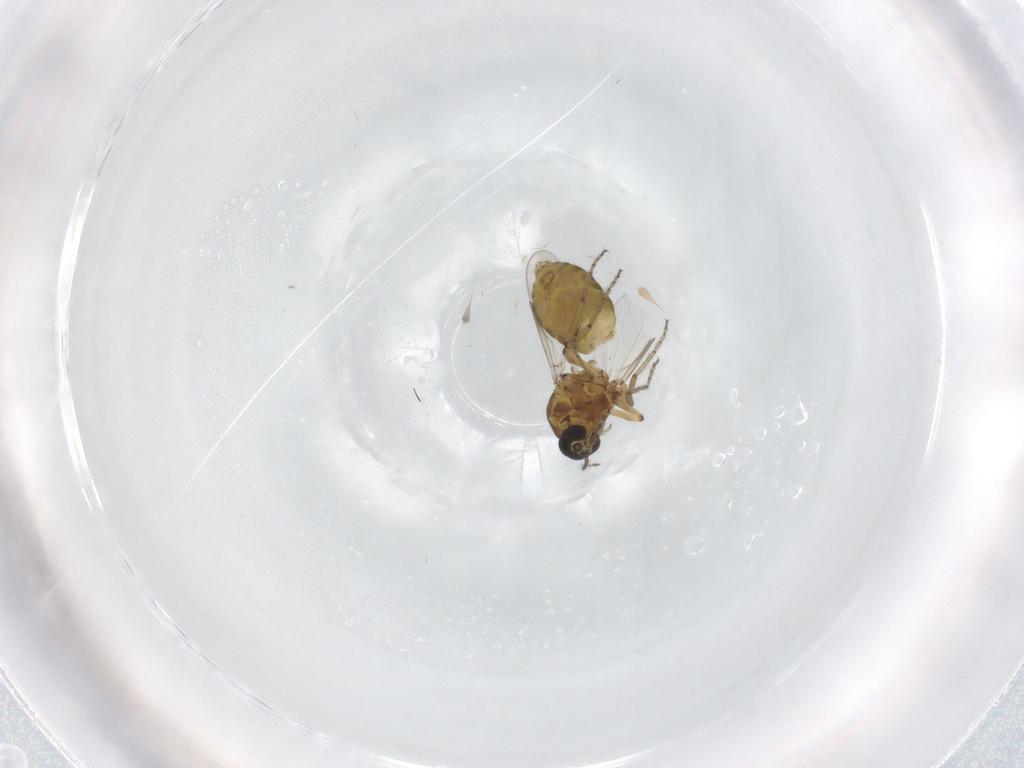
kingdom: Animalia
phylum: Arthropoda
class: Insecta
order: Diptera
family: Ceratopogonidae
